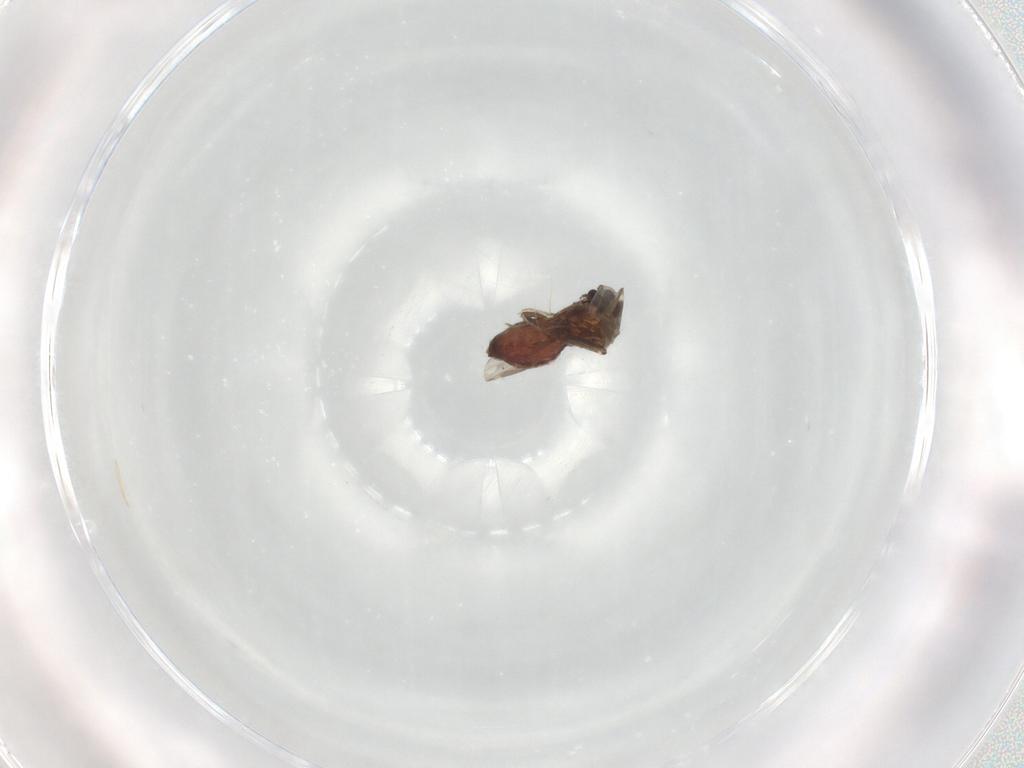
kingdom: Animalia
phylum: Arthropoda
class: Insecta
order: Diptera
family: Ceratopogonidae
